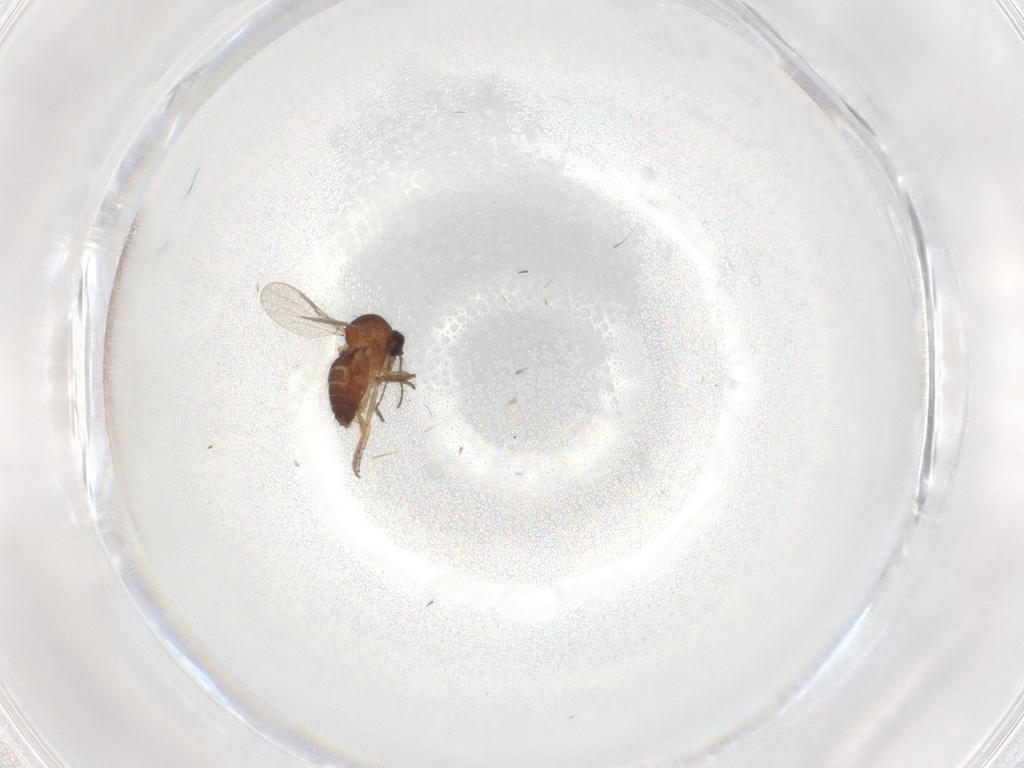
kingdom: Animalia
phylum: Arthropoda
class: Insecta
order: Diptera
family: Ceratopogonidae
